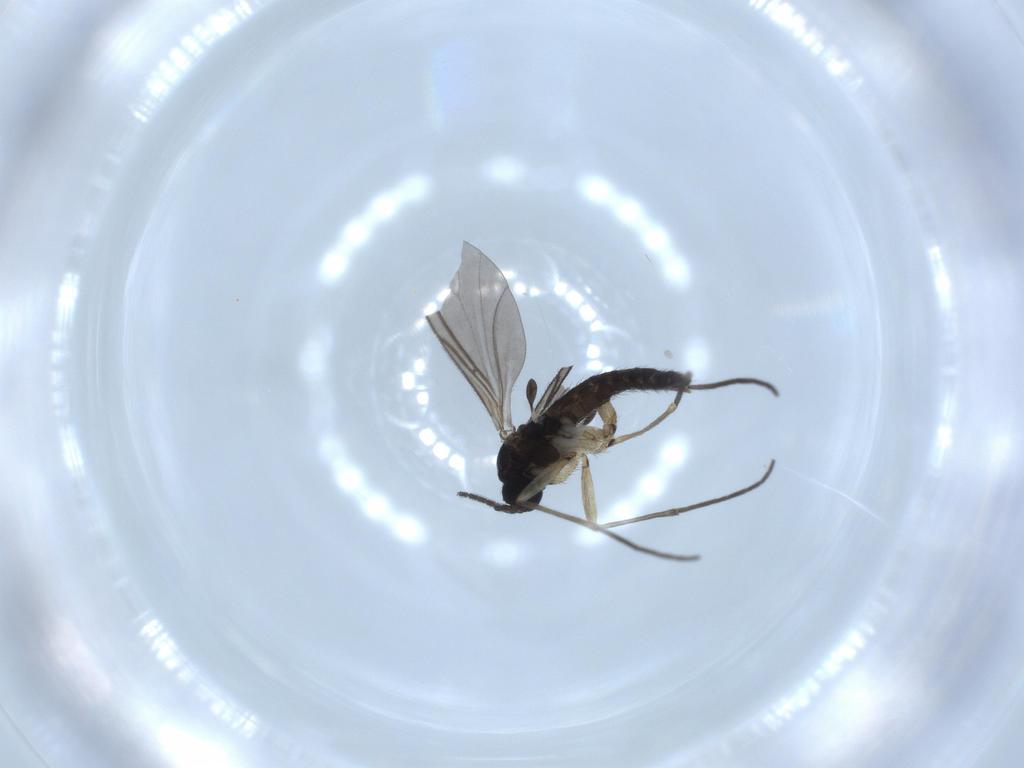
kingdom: Animalia
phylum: Arthropoda
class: Insecta
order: Diptera
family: Sciaridae
